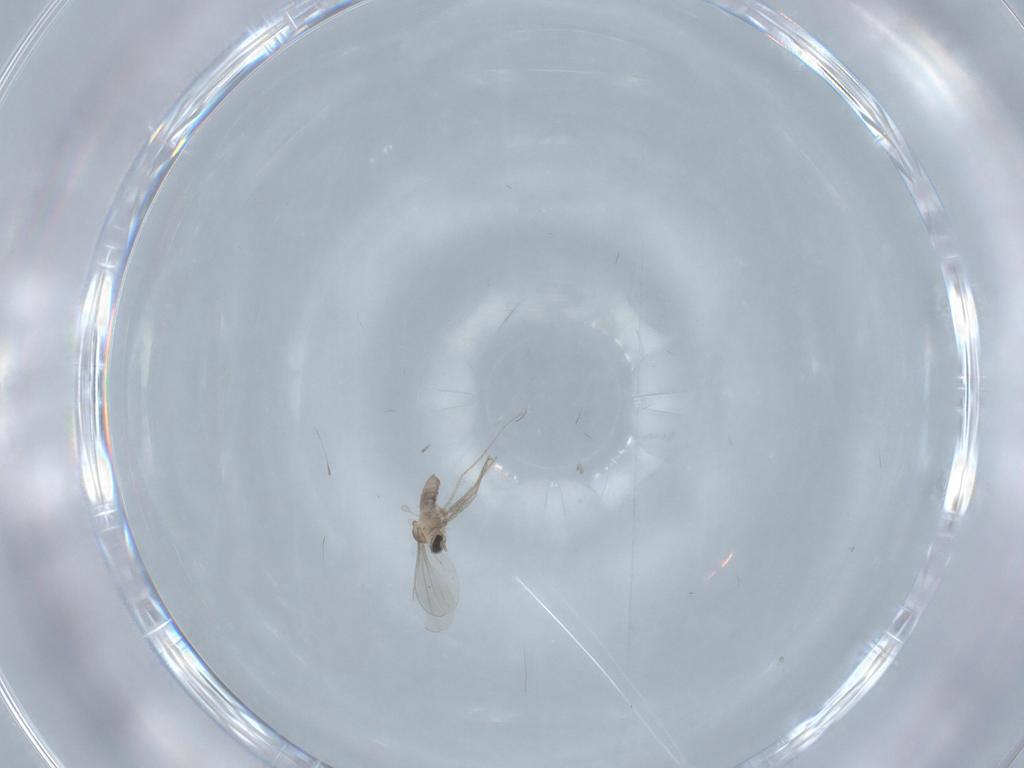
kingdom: Animalia
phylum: Arthropoda
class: Insecta
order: Diptera
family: Cecidomyiidae
